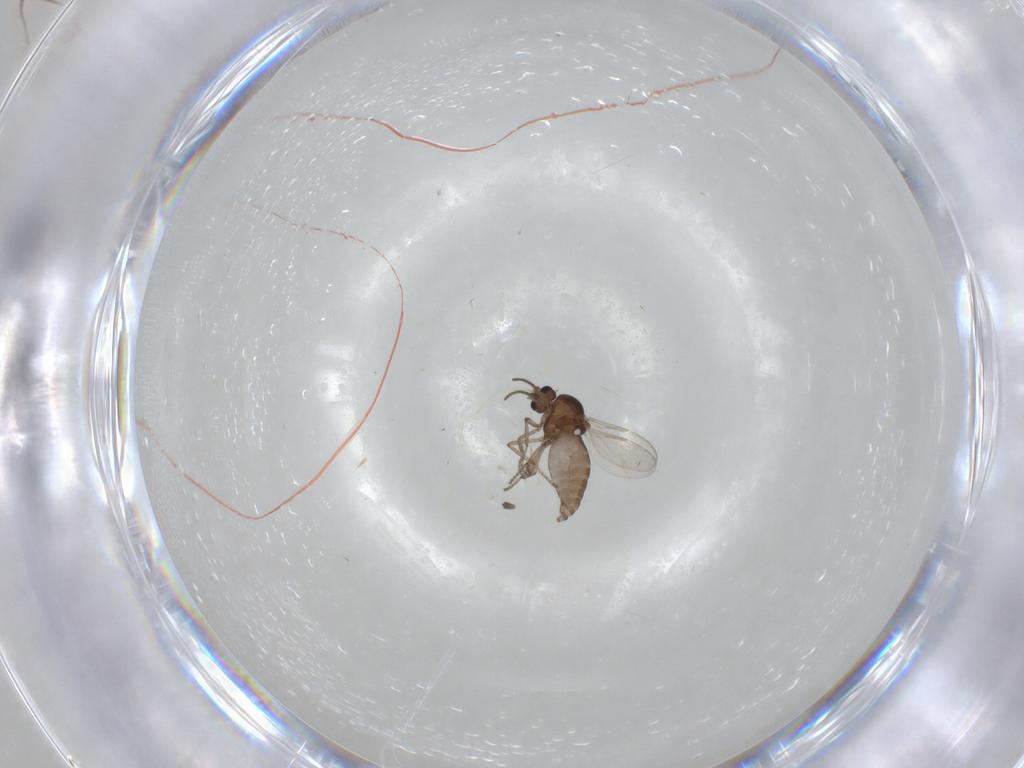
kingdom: Animalia
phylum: Arthropoda
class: Insecta
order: Diptera
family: Ceratopogonidae
